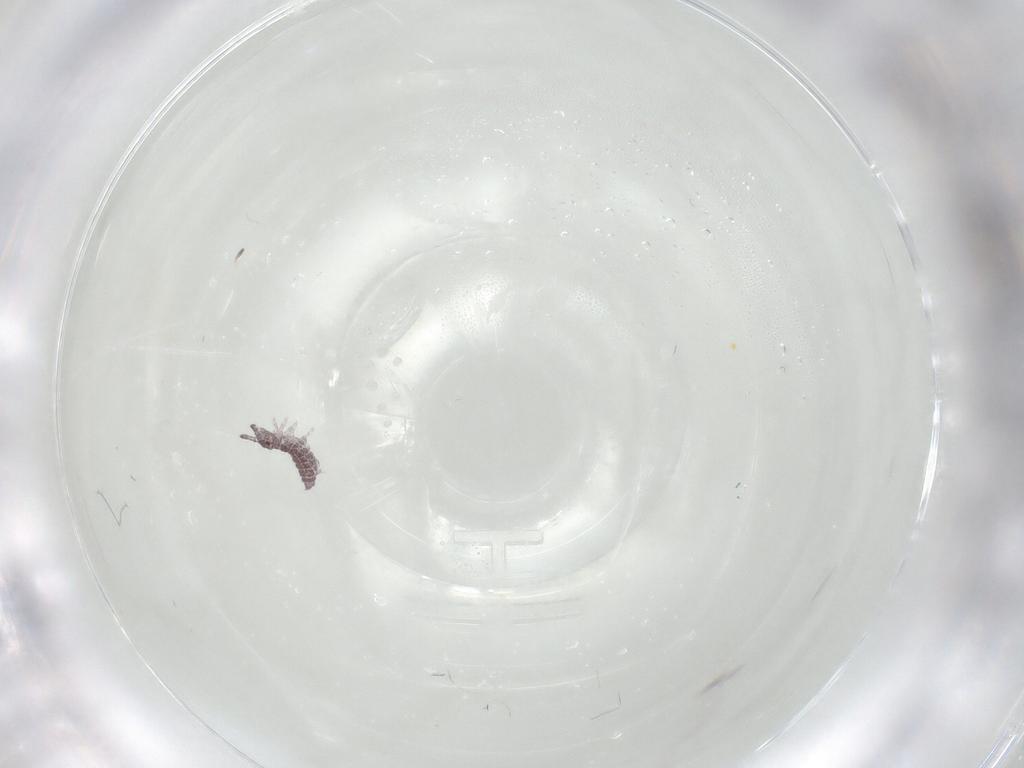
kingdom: Animalia
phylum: Arthropoda
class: Collembola
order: Poduromorpha
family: Hypogastruridae
